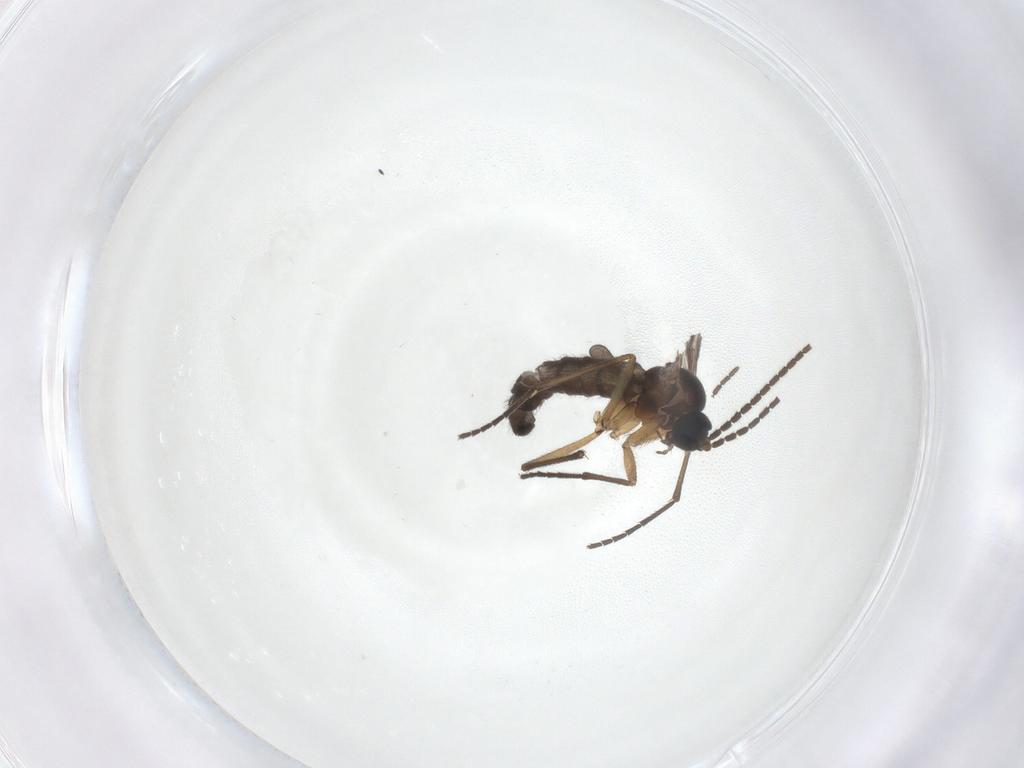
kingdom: Animalia
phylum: Arthropoda
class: Insecta
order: Diptera
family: Sciaridae
